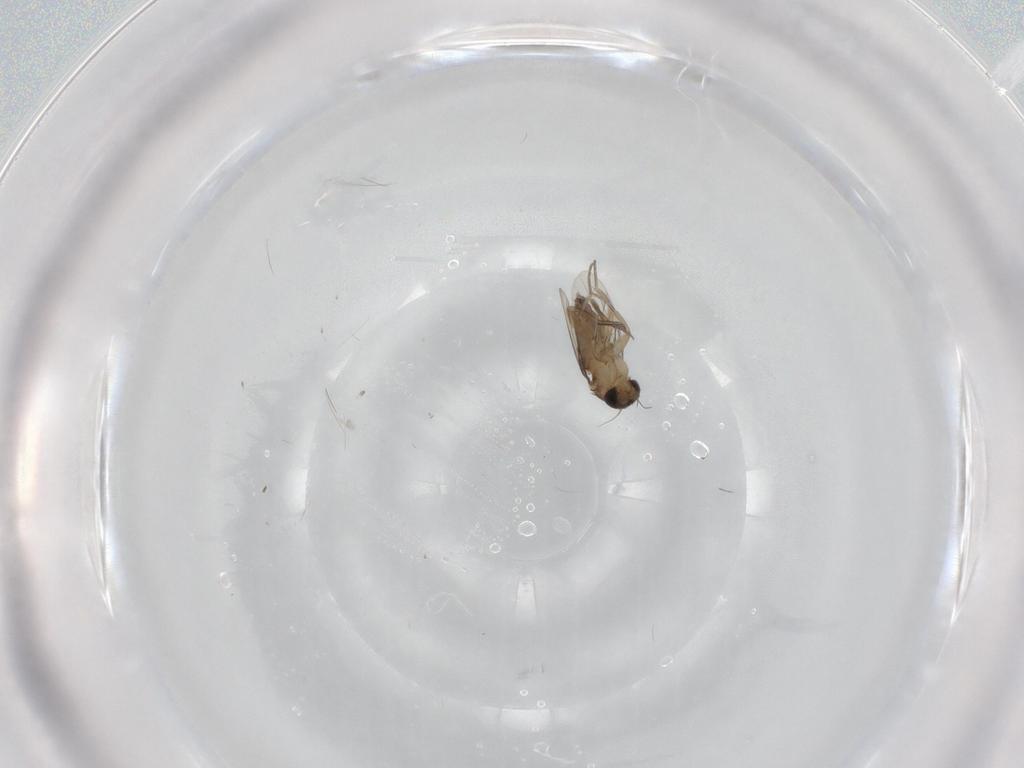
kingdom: Animalia
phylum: Arthropoda
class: Insecta
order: Diptera
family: Phoridae
